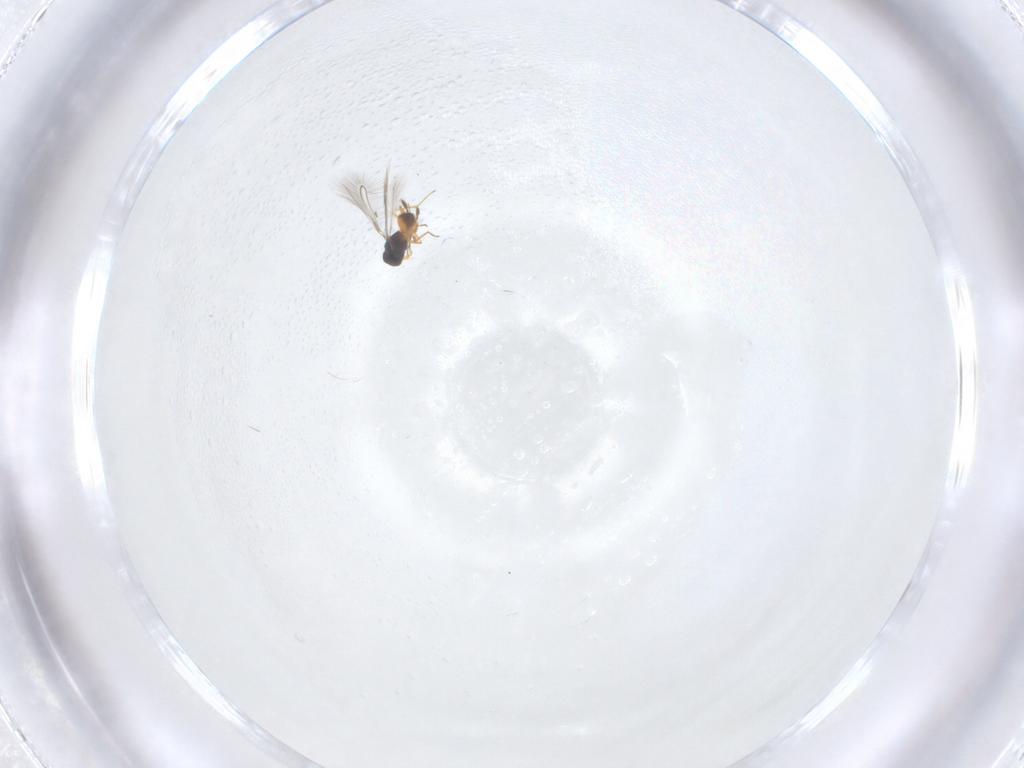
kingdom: Animalia
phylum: Arthropoda
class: Insecta
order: Hymenoptera
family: Mymaridae
